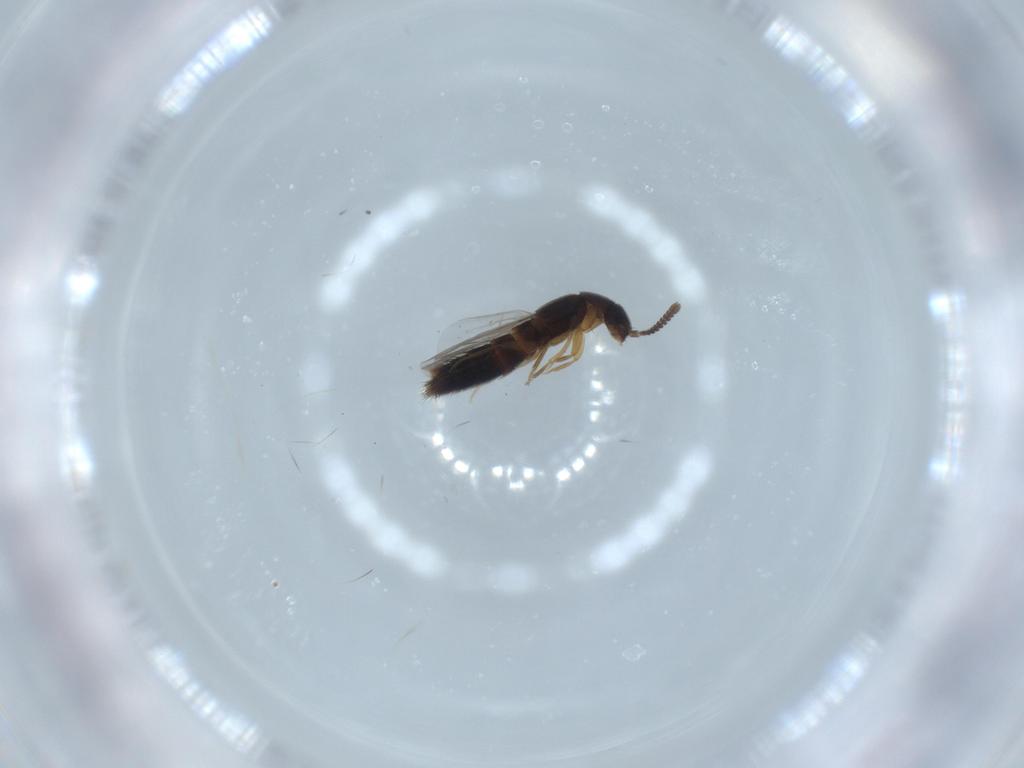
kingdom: Animalia
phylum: Arthropoda
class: Insecta
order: Coleoptera
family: Staphylinidae
